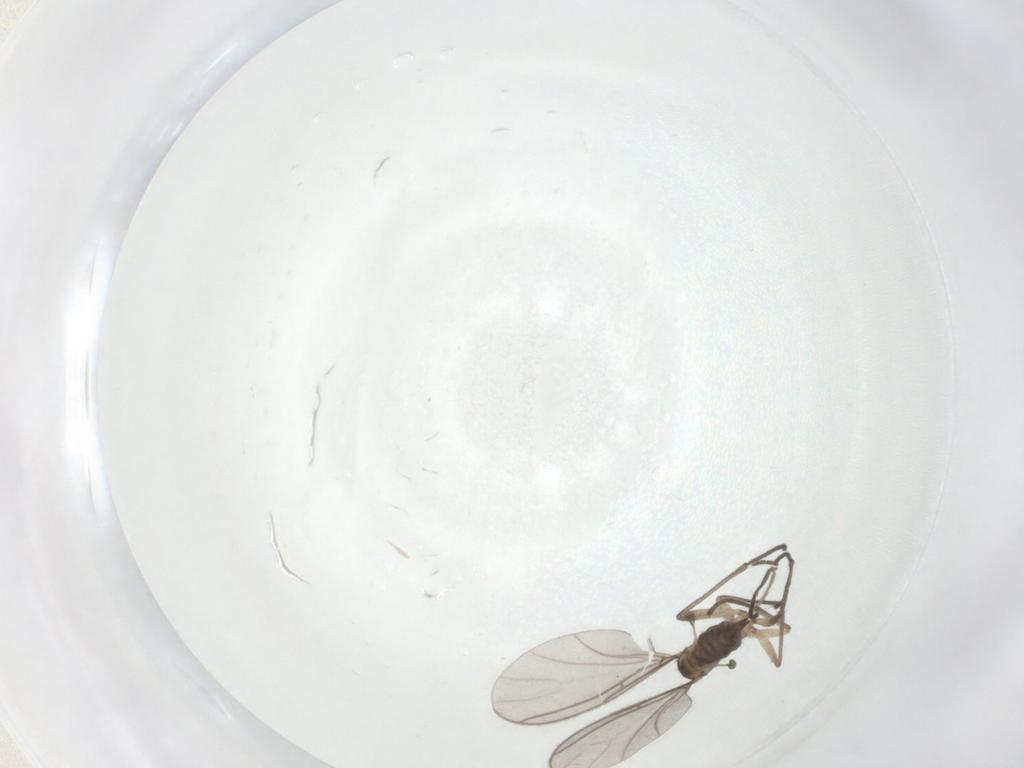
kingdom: Animalia
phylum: Arthropoda
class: Insecta
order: Diptera
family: Sciaridae
